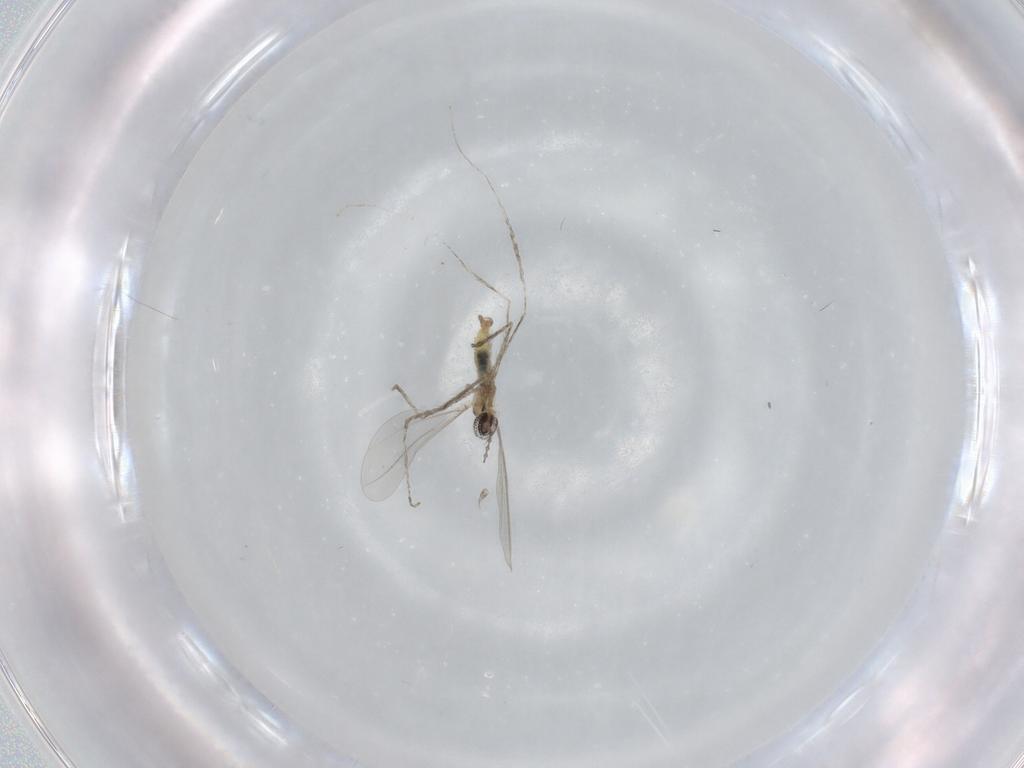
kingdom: Animalia
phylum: Arthropoda
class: Insecta
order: Diptera
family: Cecidomyiidae
